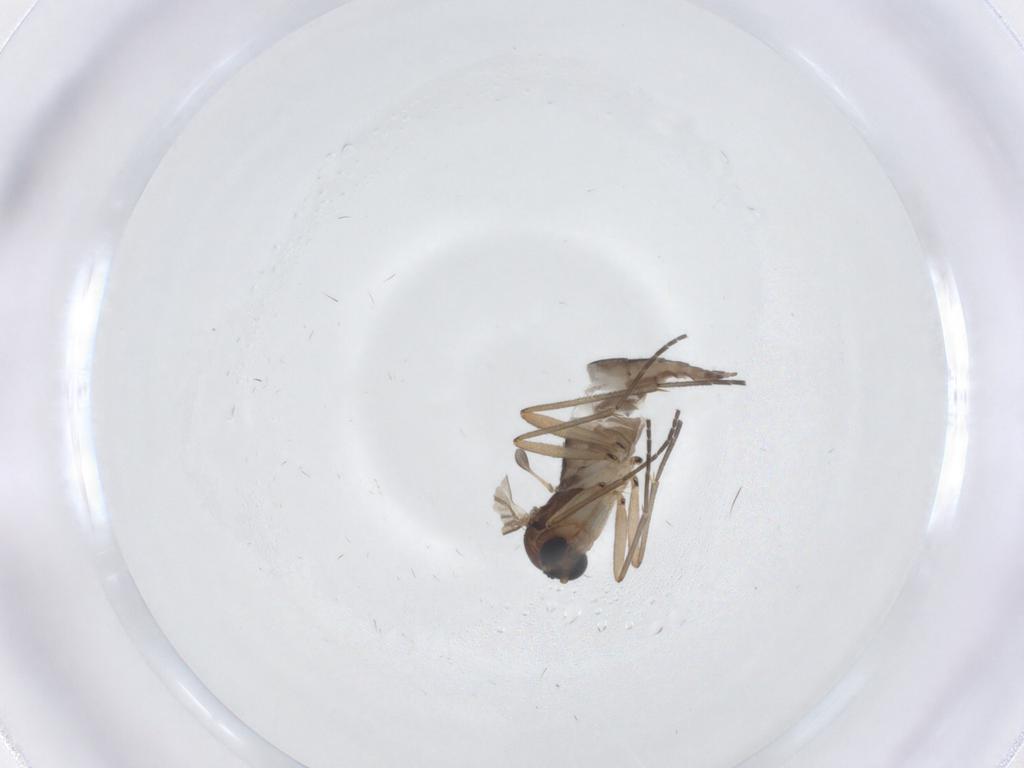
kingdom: Animalia
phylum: Arthropoda
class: Insecta
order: Diptera
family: Sciaridae
